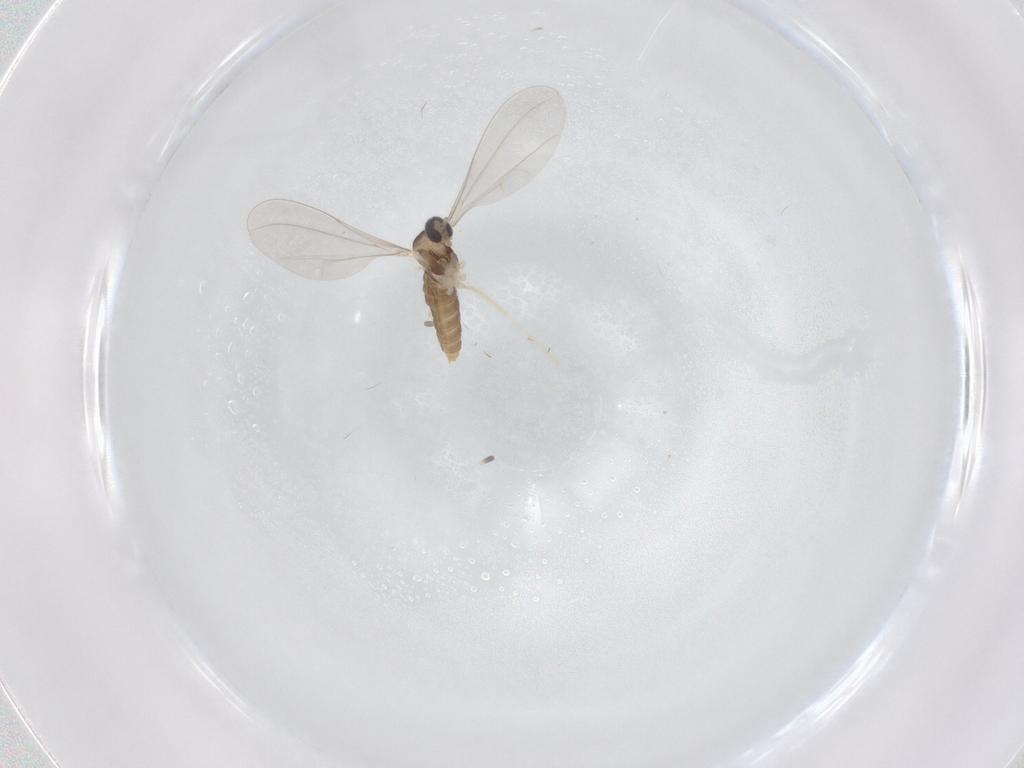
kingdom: Animalia
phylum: Arthropoda
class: Insecta
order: Diptera
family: Cecidomyiidae
